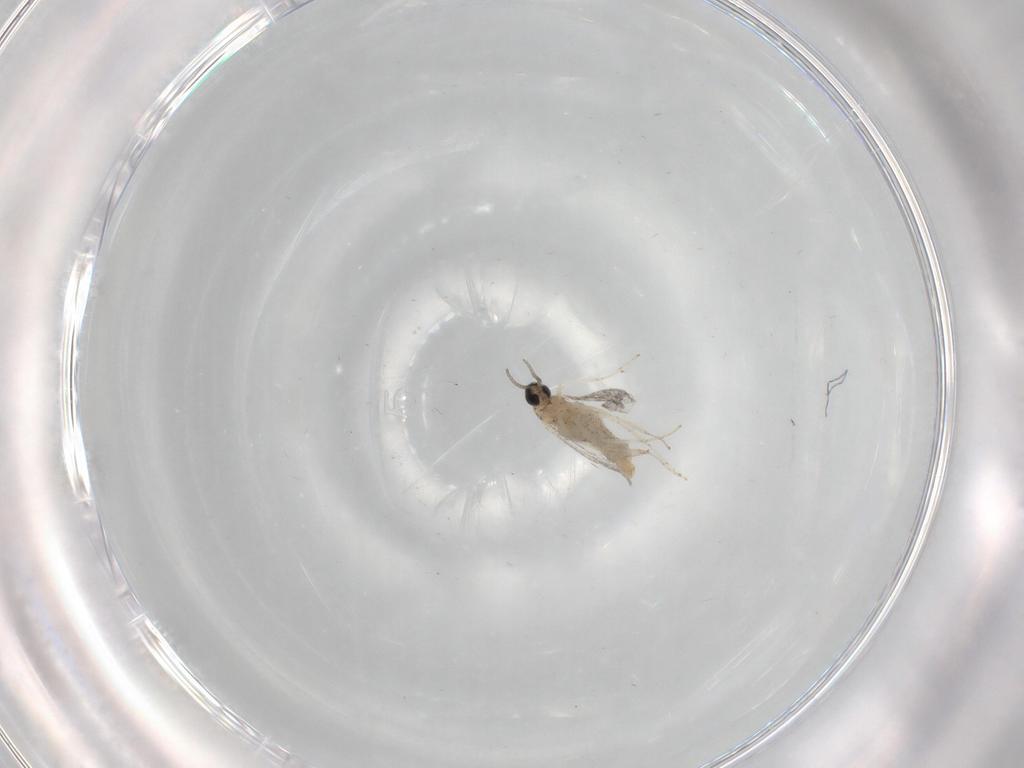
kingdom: Animalia
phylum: Arthropoda
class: Insecta
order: Diptera
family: Cecidomyiidae
